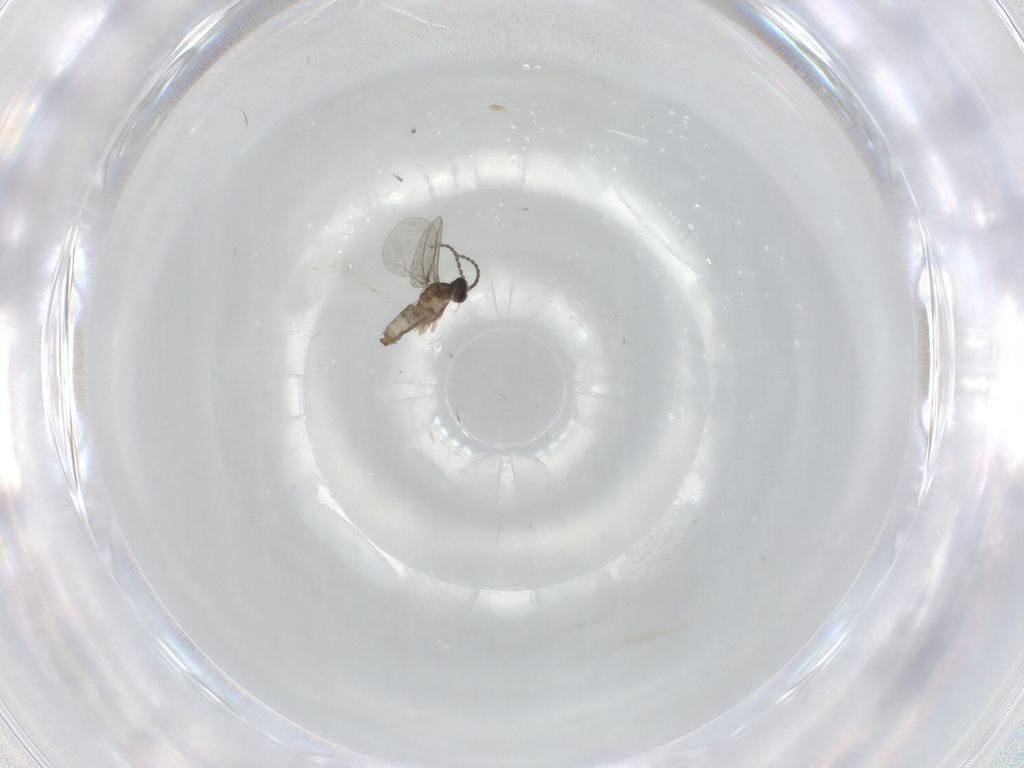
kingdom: Animalia
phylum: Arthropoda
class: Insecta
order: Diptera
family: Cecidomyiidae
